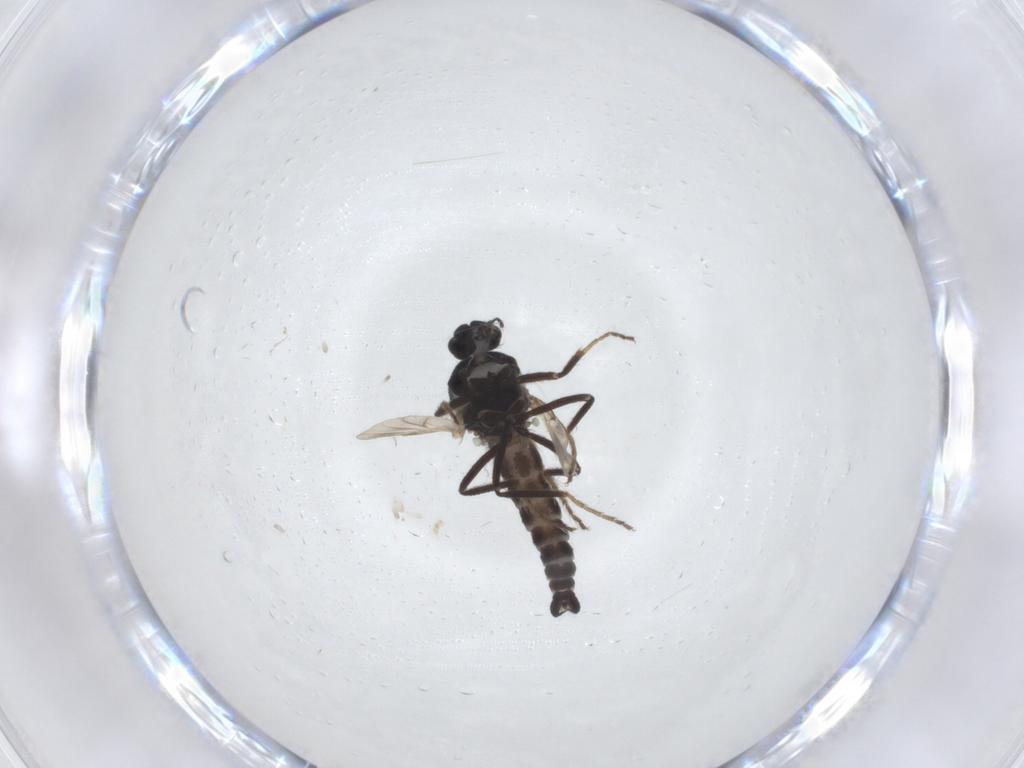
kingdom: Animalia
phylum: Arthropoda
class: Insecta
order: Diptera
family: Ceratopogonidae
